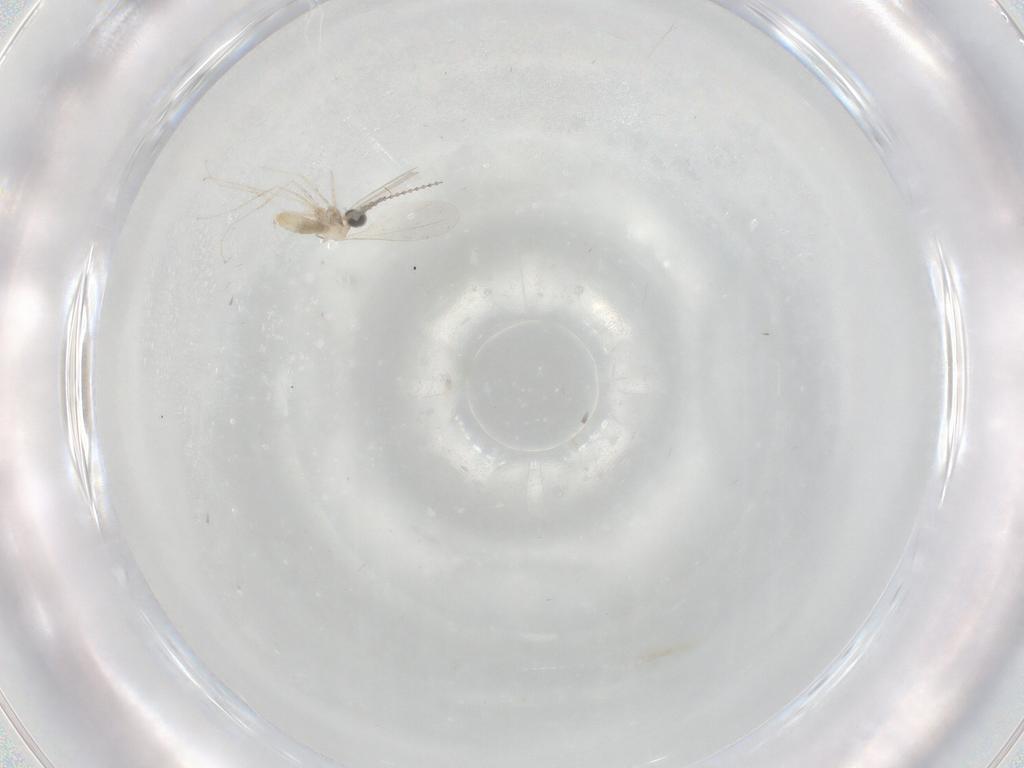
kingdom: Animalia
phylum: Arthropoda
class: Insecta
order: Diptera
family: Cecidomyiidae
